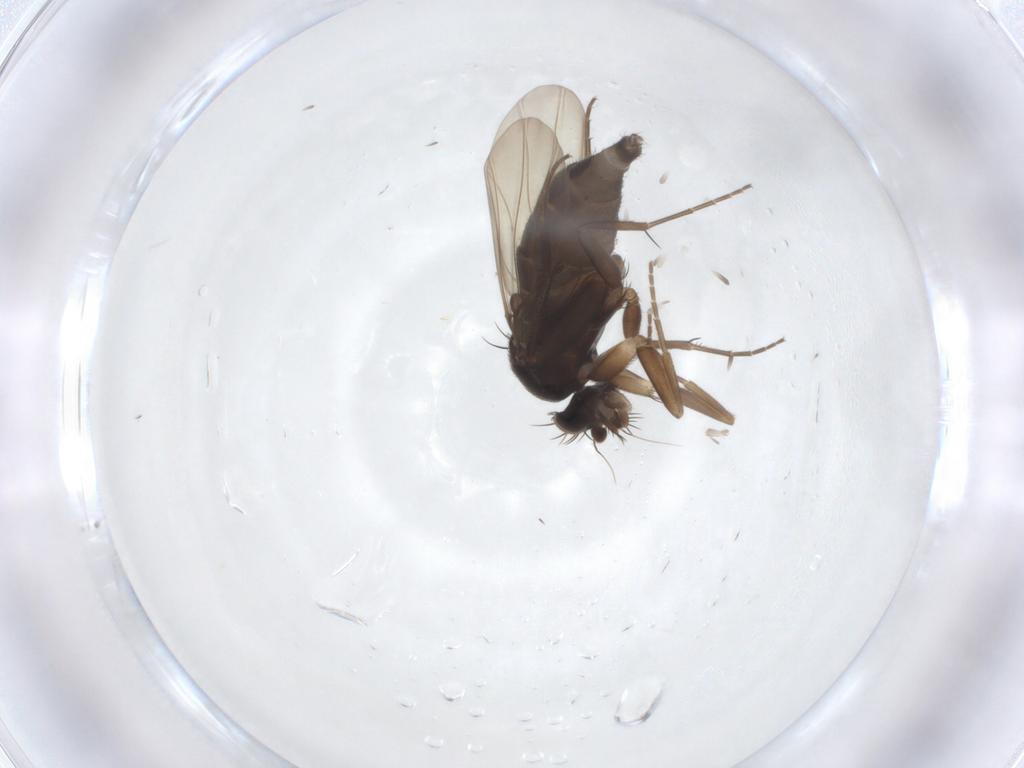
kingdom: Animalia
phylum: Arthropoda
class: Insecta
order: Diptera
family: Phoridae
